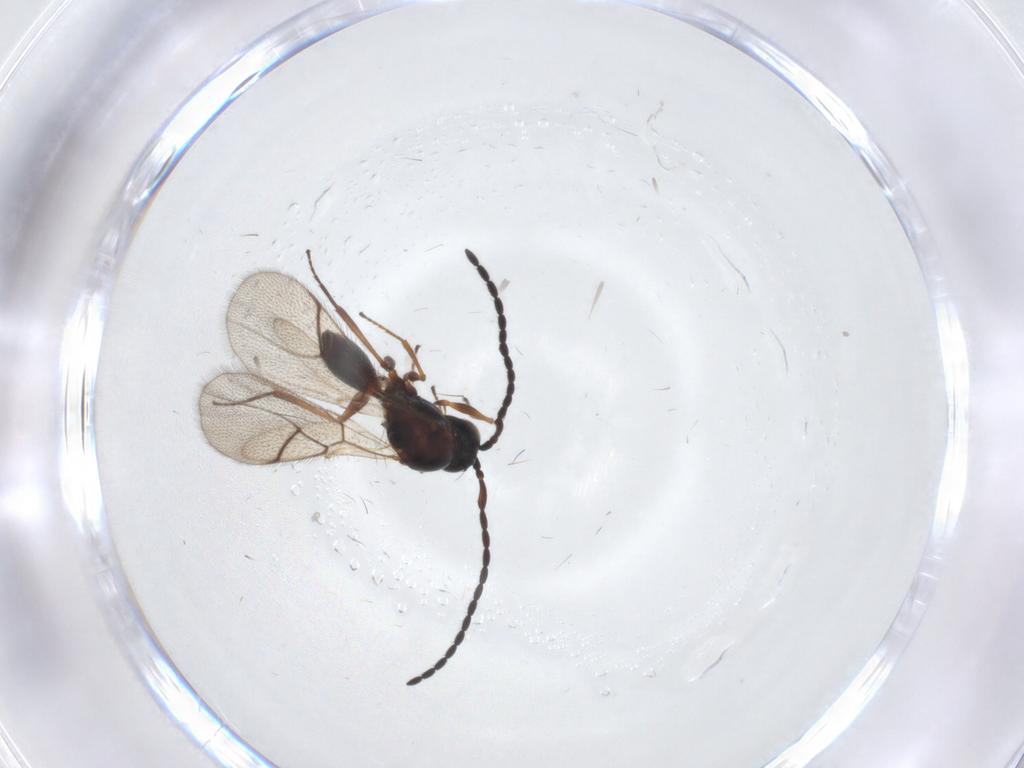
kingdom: Animalia
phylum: Arthropoda
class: Insecta
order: Hymenoptera
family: Figitidae
